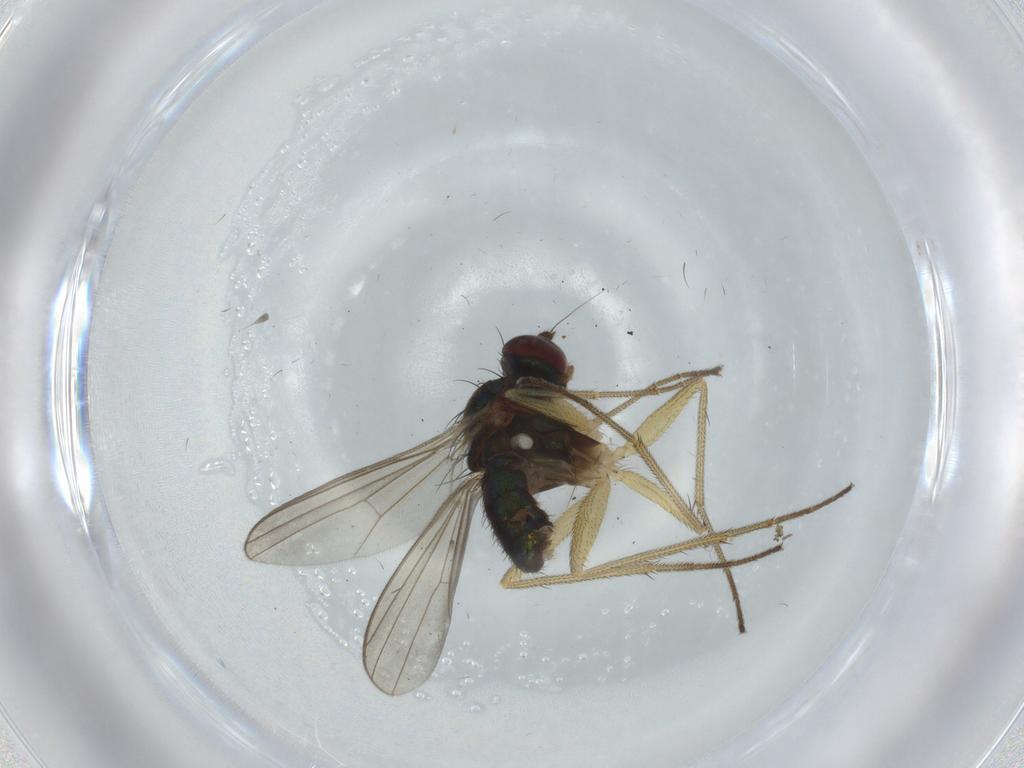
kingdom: Animalia
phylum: Arthropoda
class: Insecta
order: Diptera
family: Dolichopodidae
